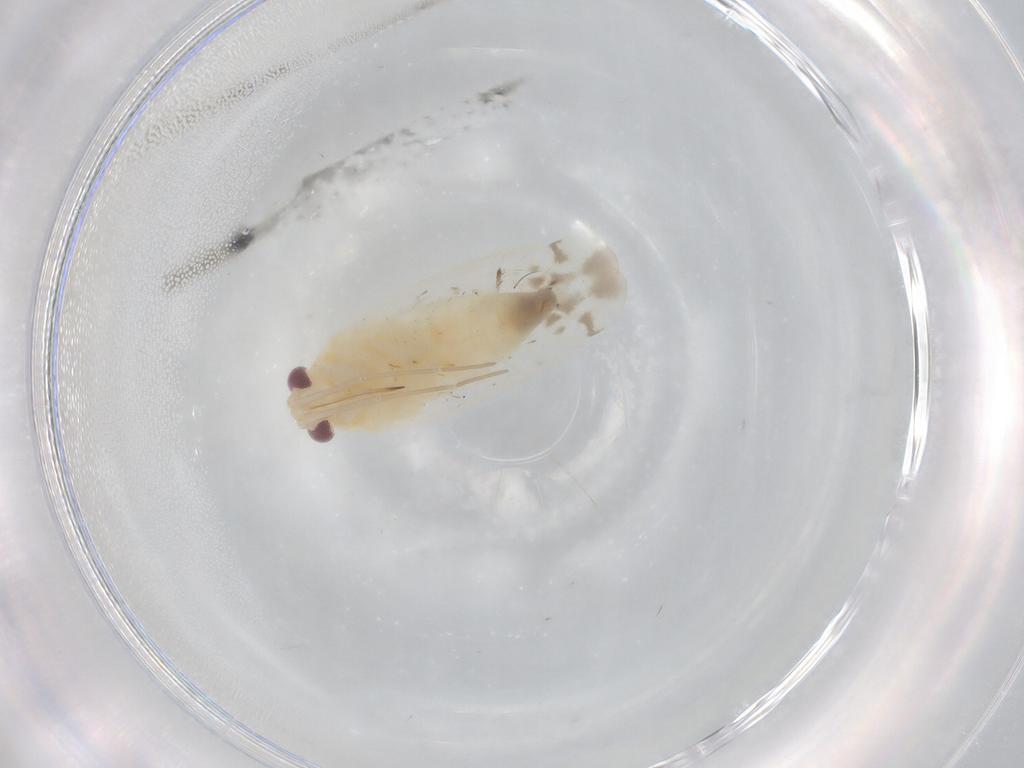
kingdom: Animalia
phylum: Arthropoda
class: Insecta
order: Hemiptera
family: Miridae
